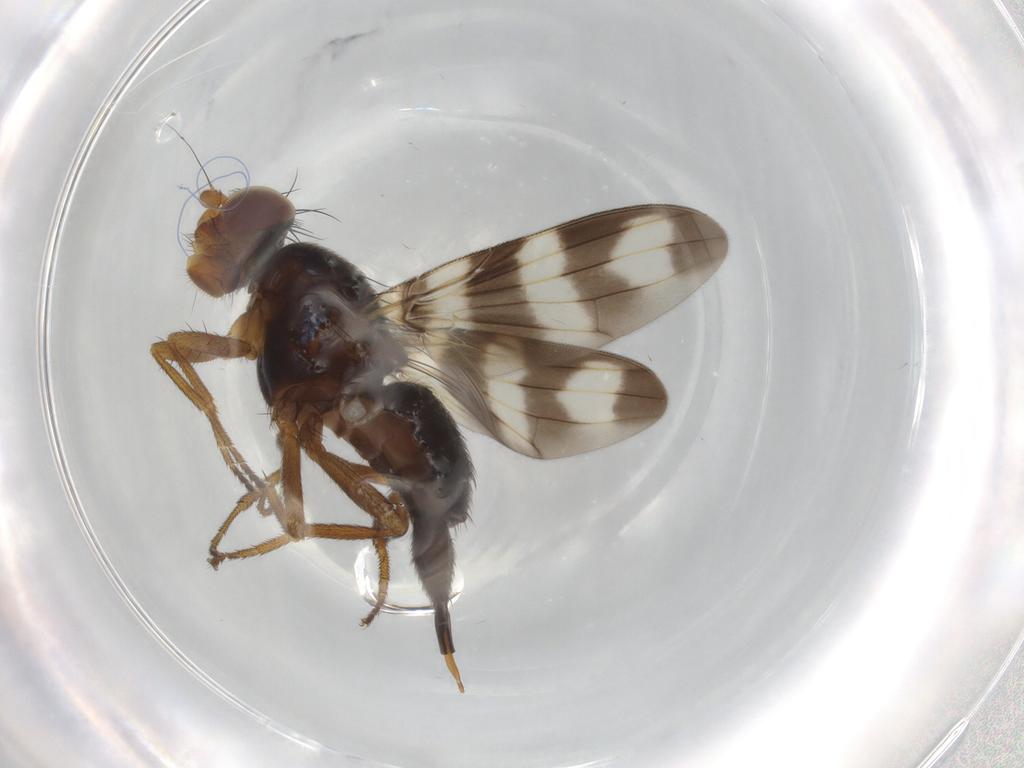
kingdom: Animalia
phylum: Arthropoda
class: Insecta
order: Diptera
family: Ulidiidae
